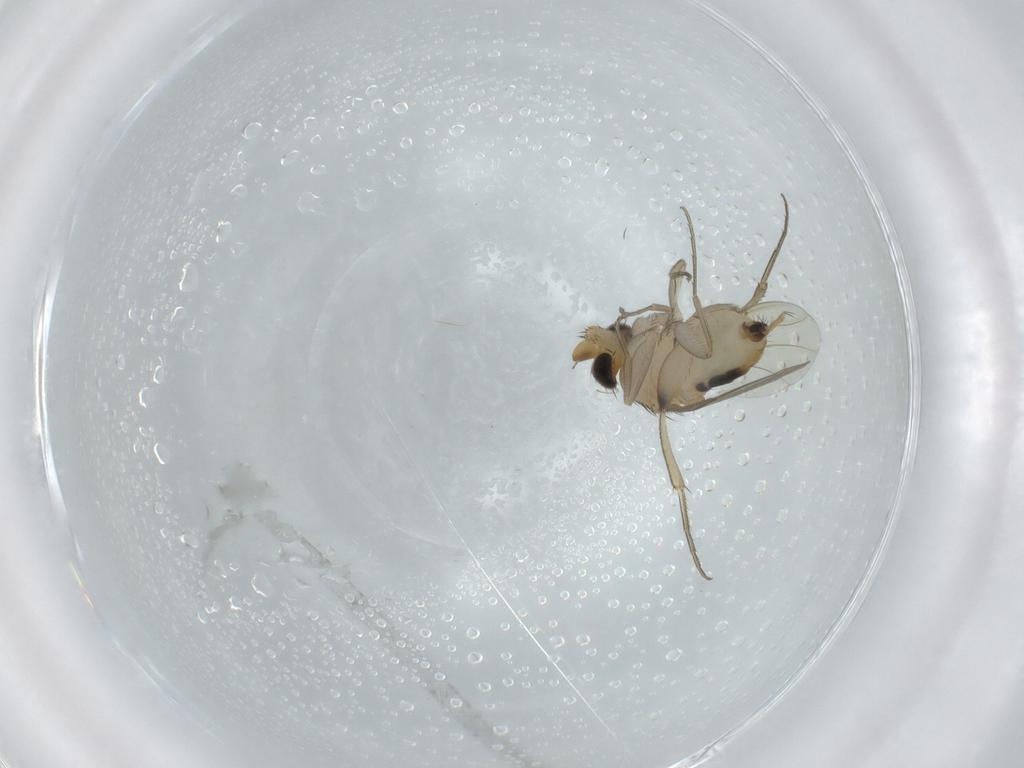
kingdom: Animalia
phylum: Arthropoda
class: Insecta
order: Diptera
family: Phoridae
